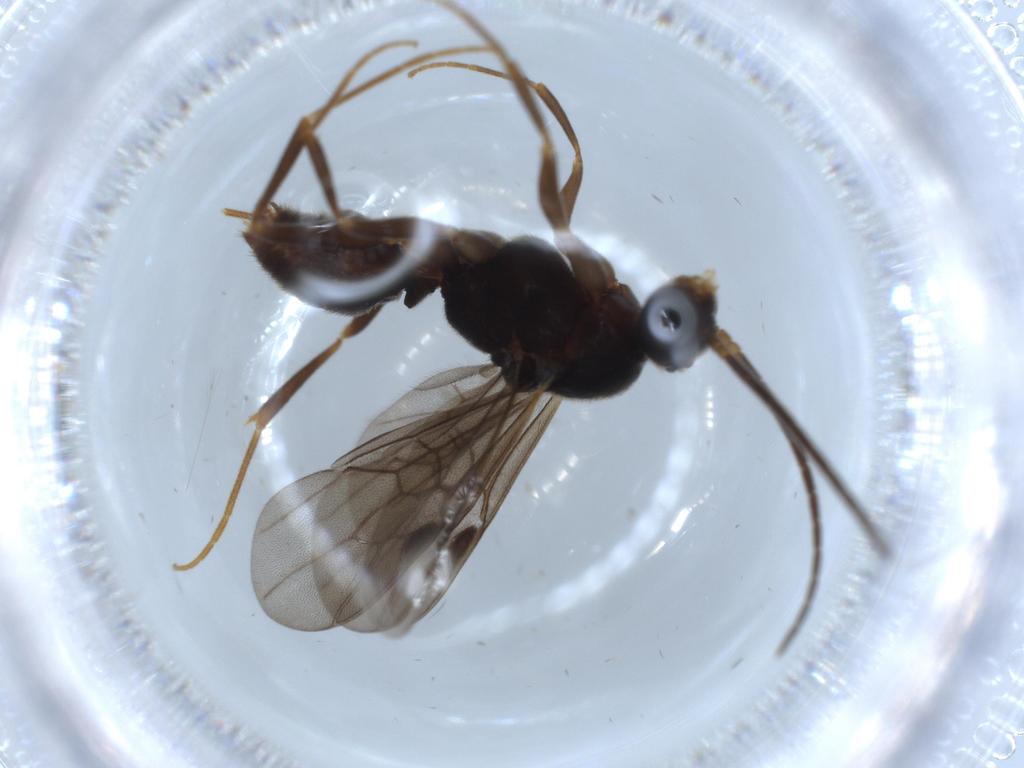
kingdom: Animalia
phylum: Arthropoda
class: Insecta
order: Hymenoptera
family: Formicidae
